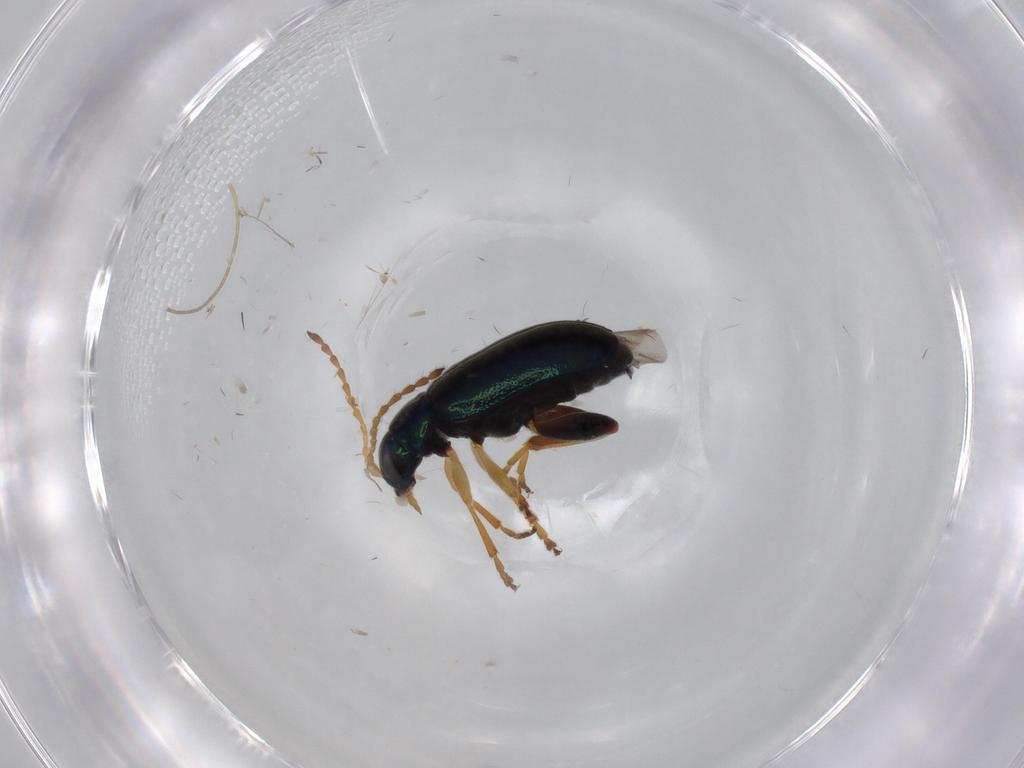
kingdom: Animalia
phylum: Arthropoda
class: Insecta
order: Coleoptera
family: Chrysomelidae
